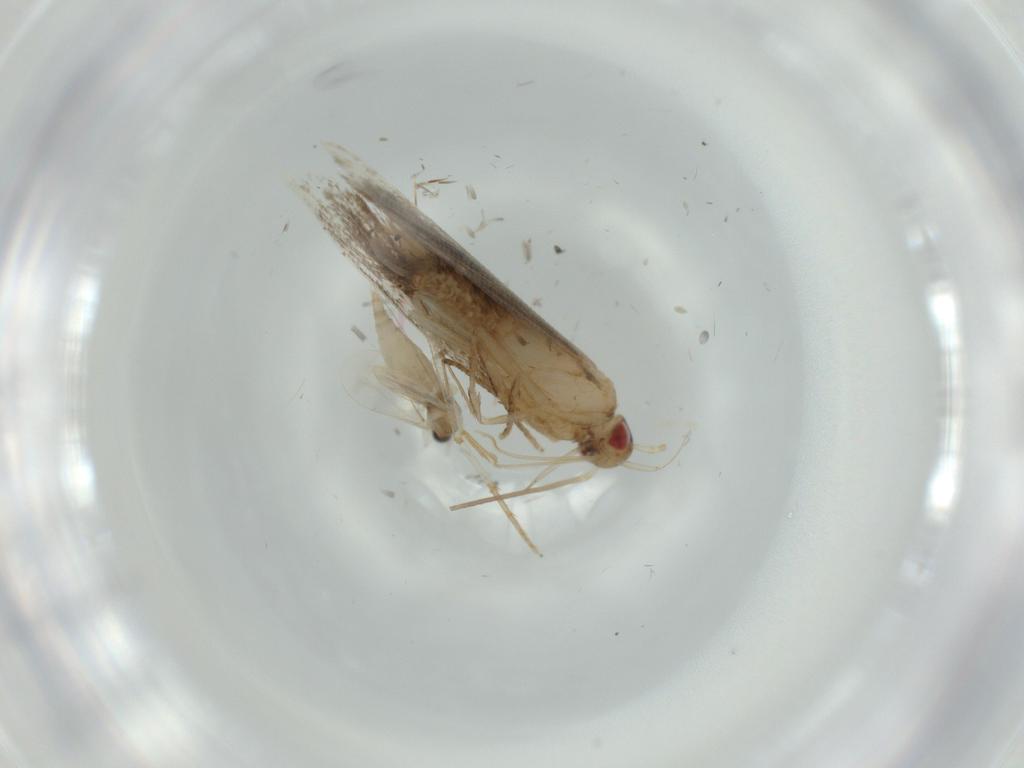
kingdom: Animalia
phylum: Arthropoda
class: Insecta
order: Diptera
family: Cecidomyiidae
